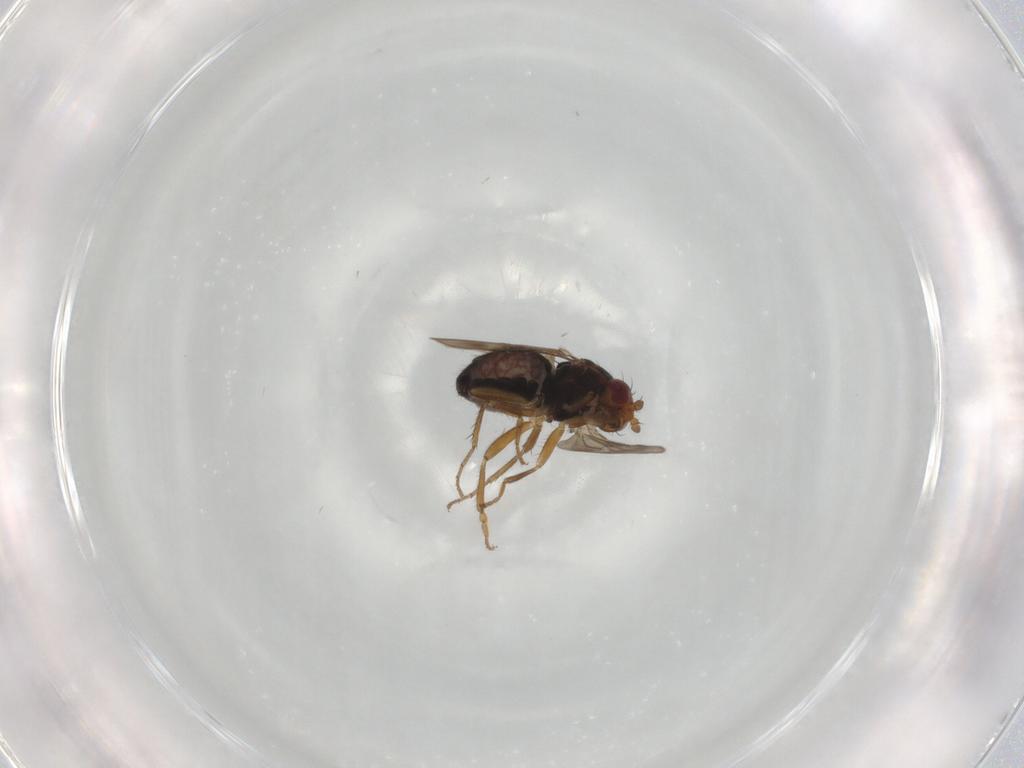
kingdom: Animalia
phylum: Arthropoda
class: Insecta
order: Diptera
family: Sphaeroceridae
